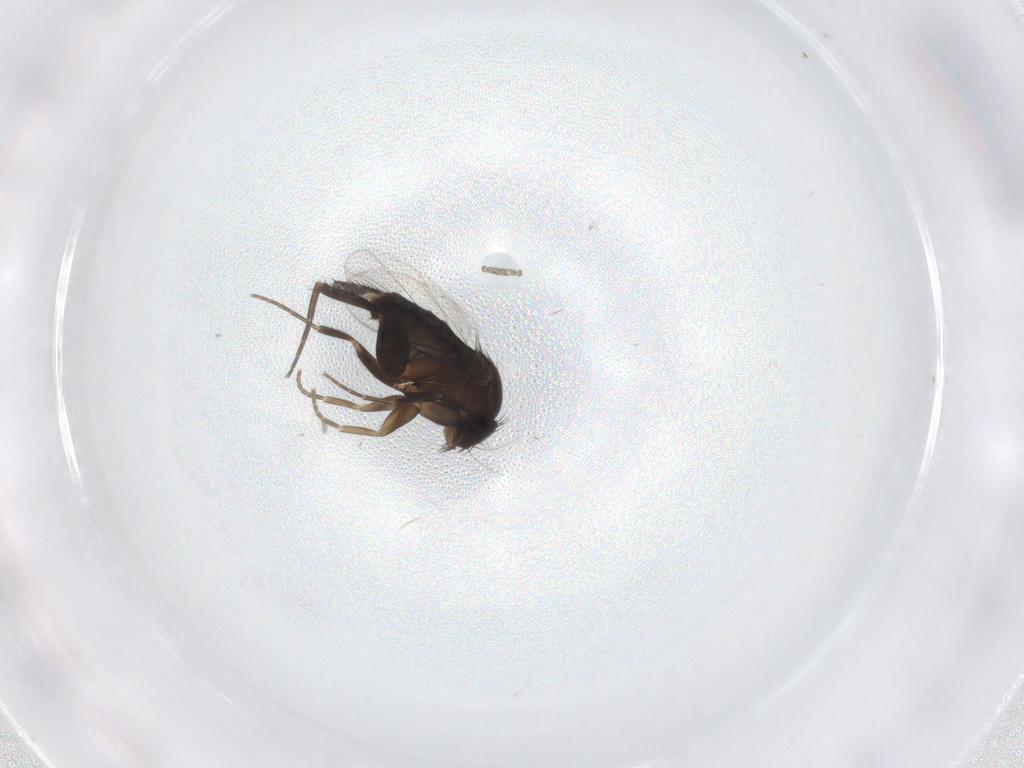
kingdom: Animalia
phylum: Arthropoda
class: Insecta
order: Diptera
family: Phoridae
